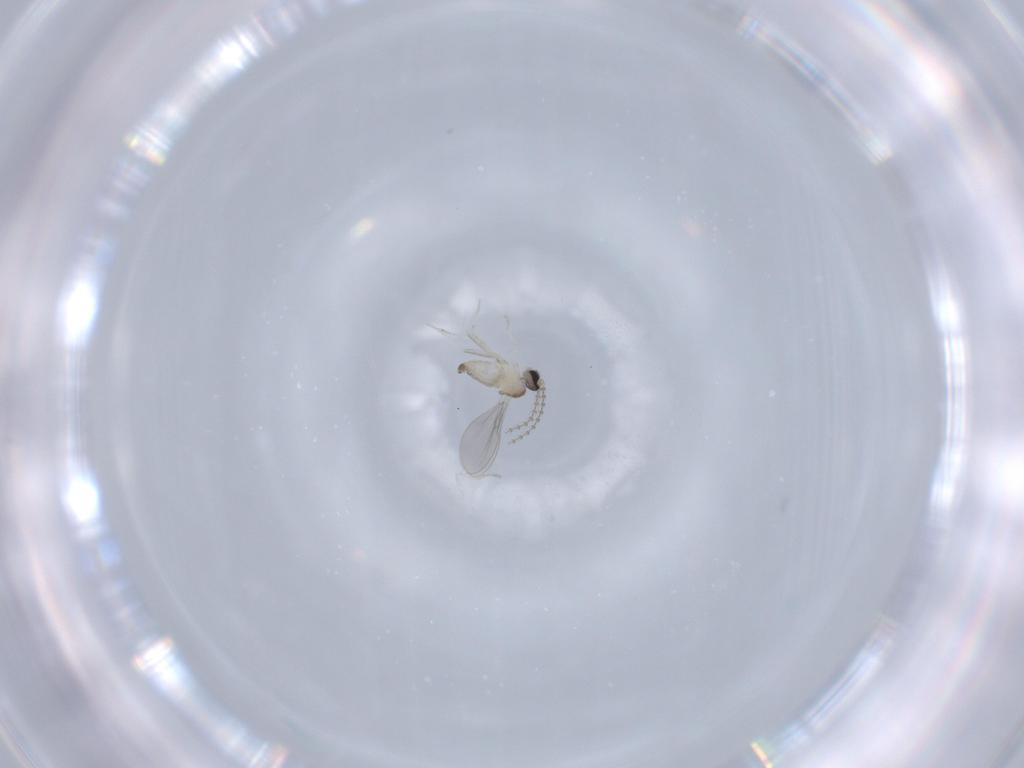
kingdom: Animalia
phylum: Arthropoda
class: Insecta
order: Diptera
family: Cecidomyiidae
